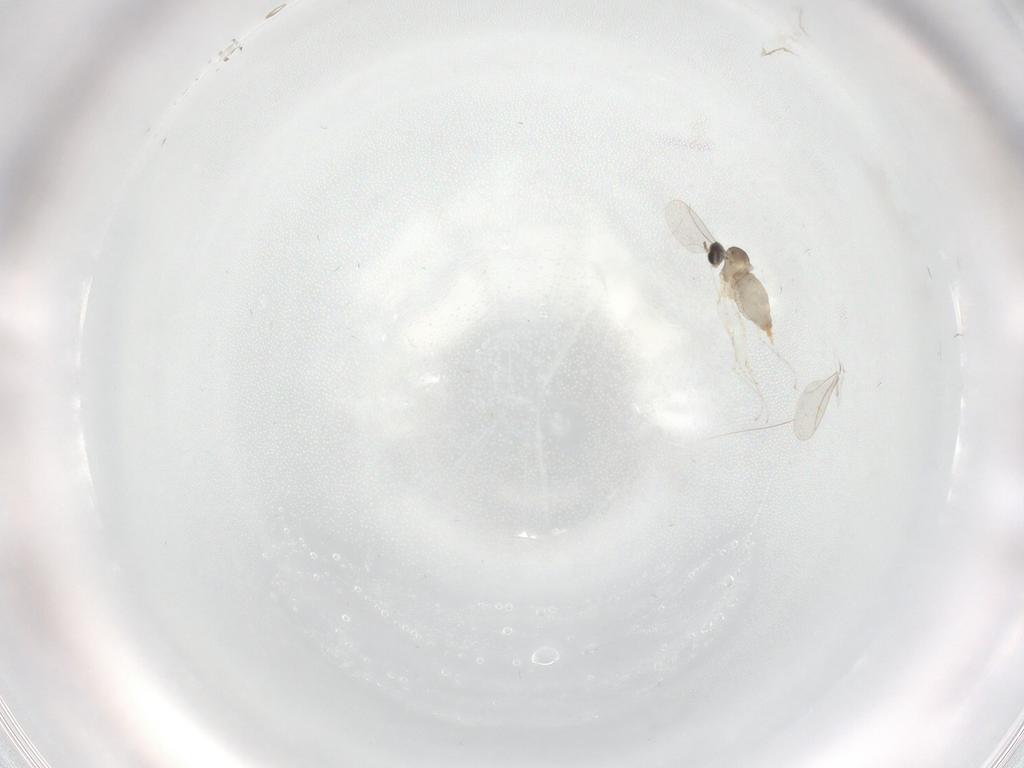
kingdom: Animalia
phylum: Arthropoda
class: Insecta
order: Diptera
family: Cecidomyiidae
